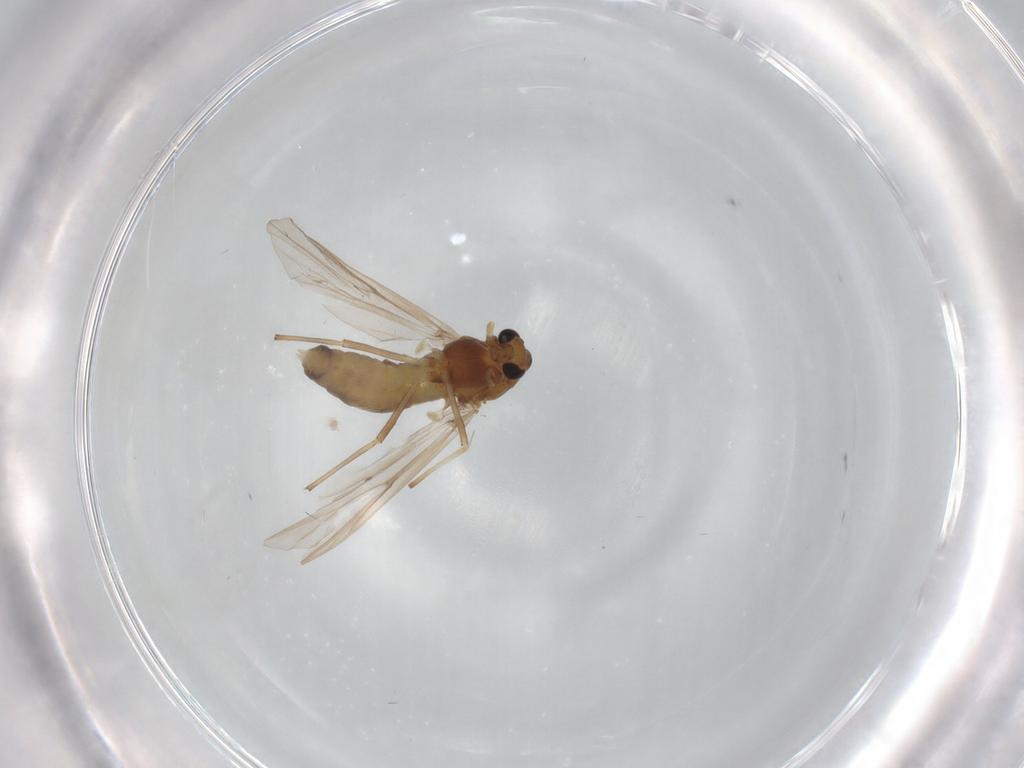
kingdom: Animalia
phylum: Arthropoda
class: Insecta
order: Diptera
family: Chironomidae
